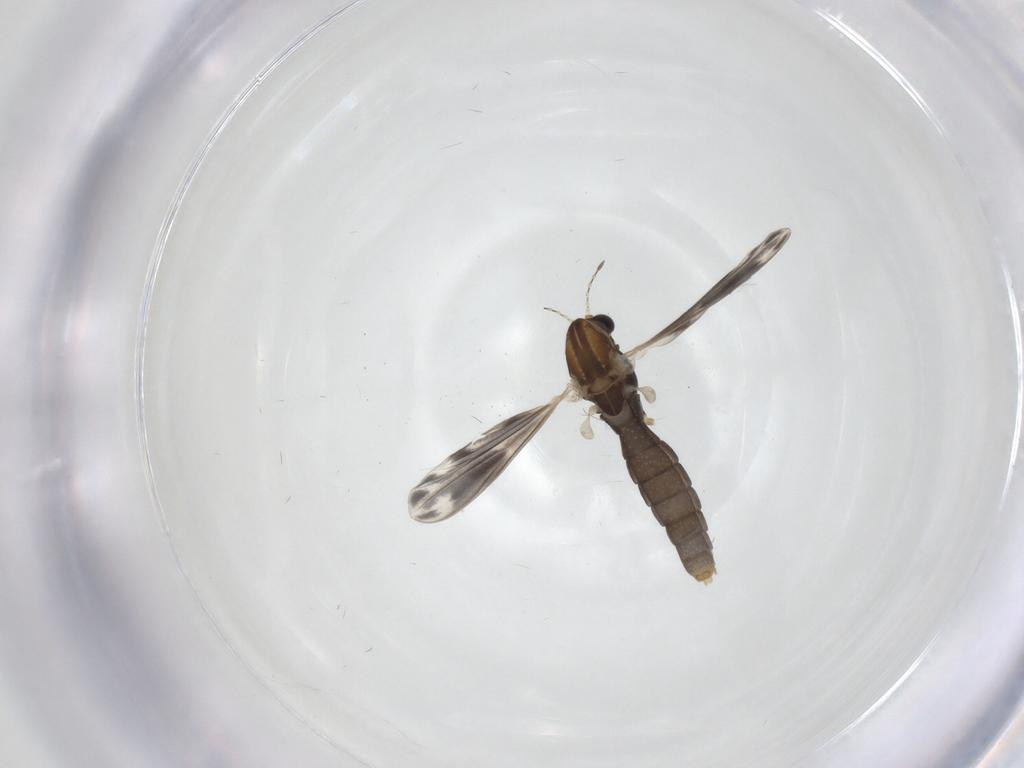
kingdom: Animalia
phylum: Arthropoda
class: Insecta
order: Diptera
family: Chironomidae
